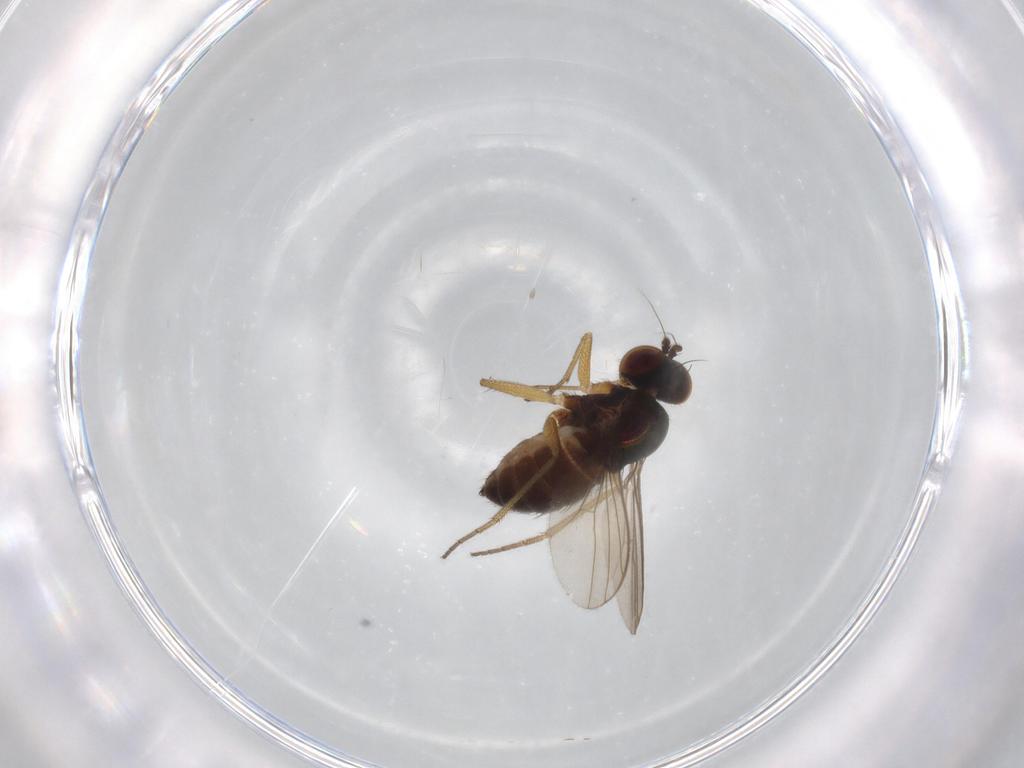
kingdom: Animalia
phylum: Arthropoda
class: Insecta
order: Diptera
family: Dolichopodidae
